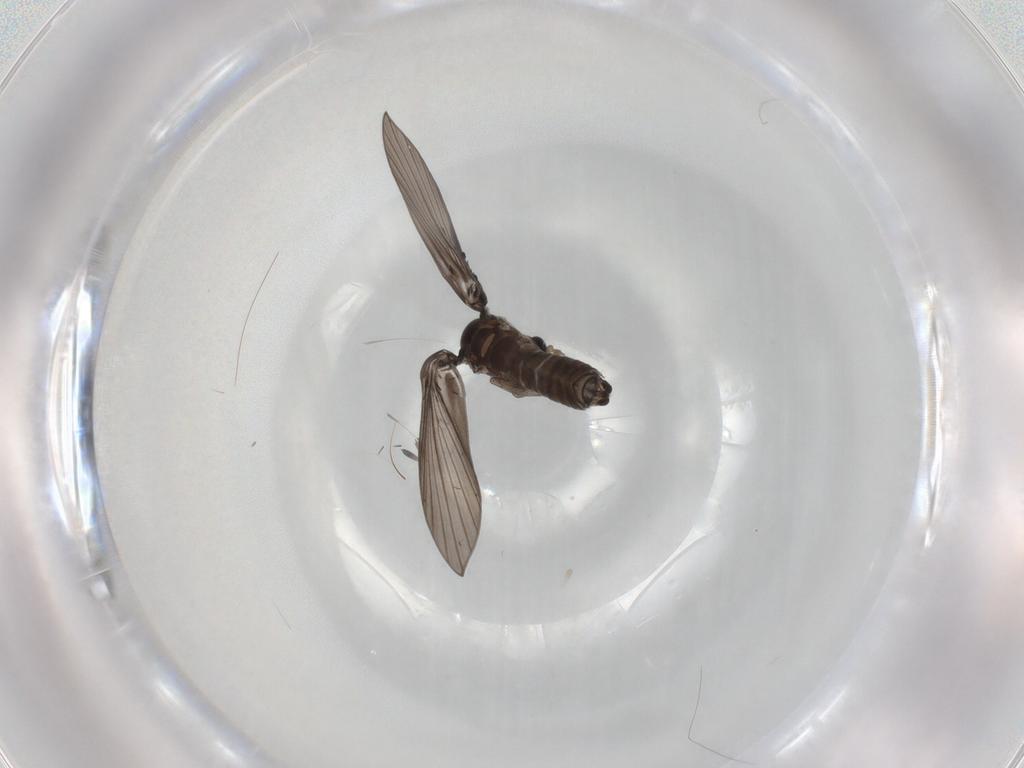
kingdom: Animalia
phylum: Arthropoda
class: Insecta
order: Diptera
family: Psychodidae
